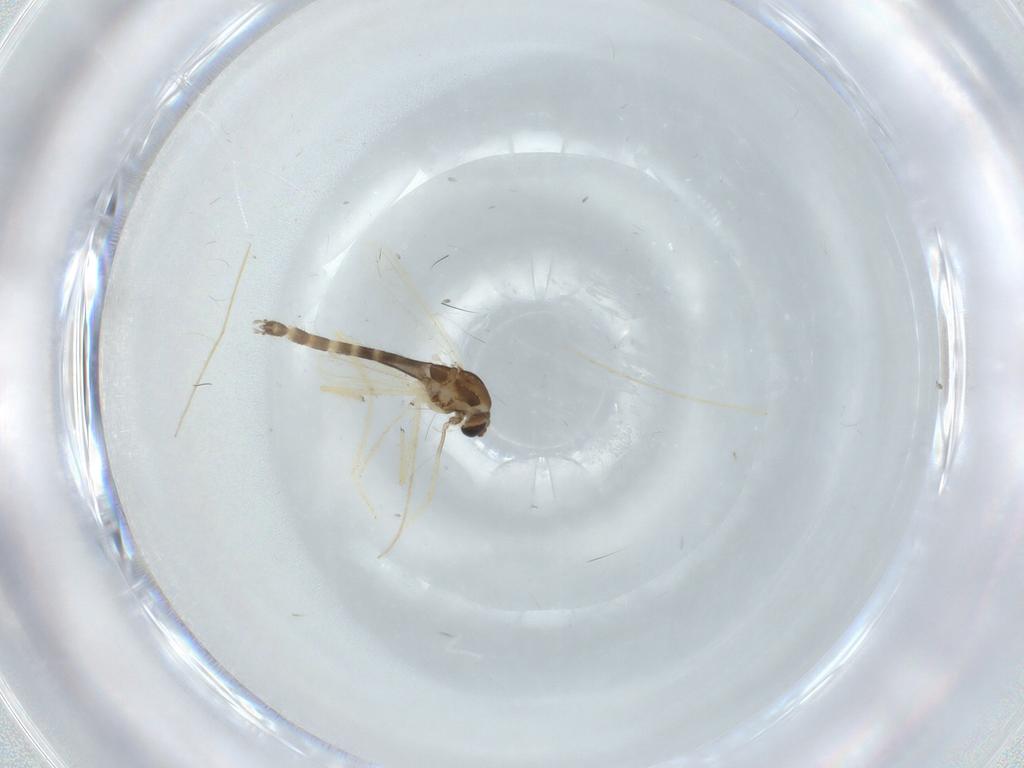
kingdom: Animalia
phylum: Arthropoda
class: Insecta
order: Diptera
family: Chironomidae
